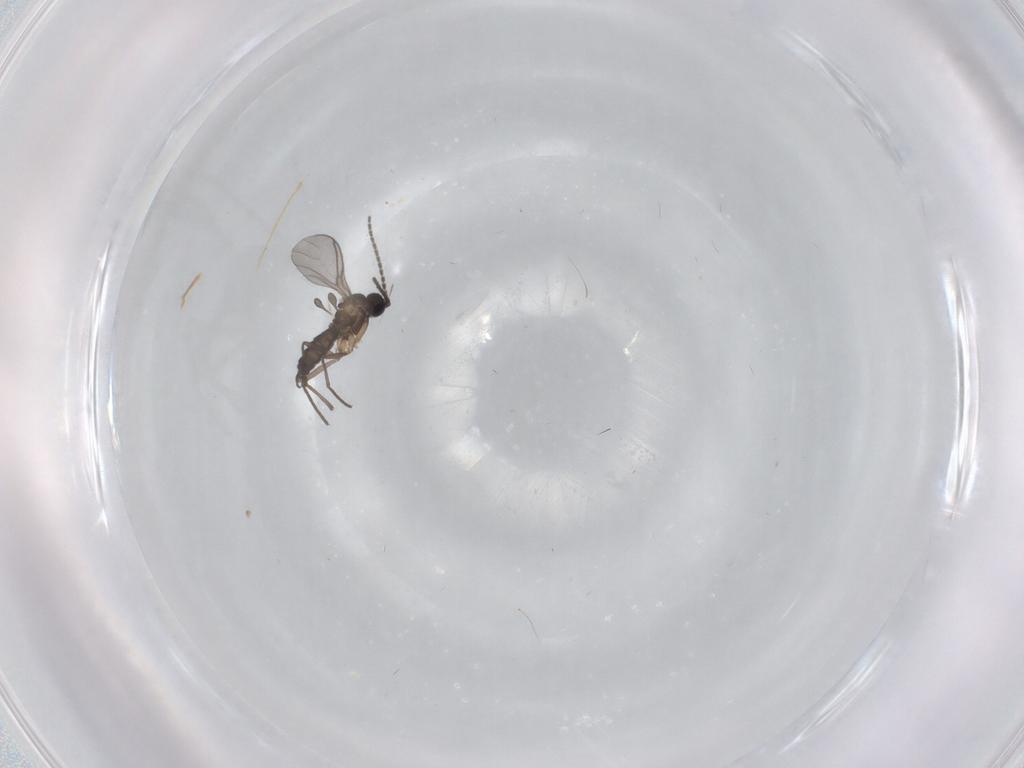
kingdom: Animalia
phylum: Arthropoda
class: Insecta
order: Diptera
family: Sciaridae
